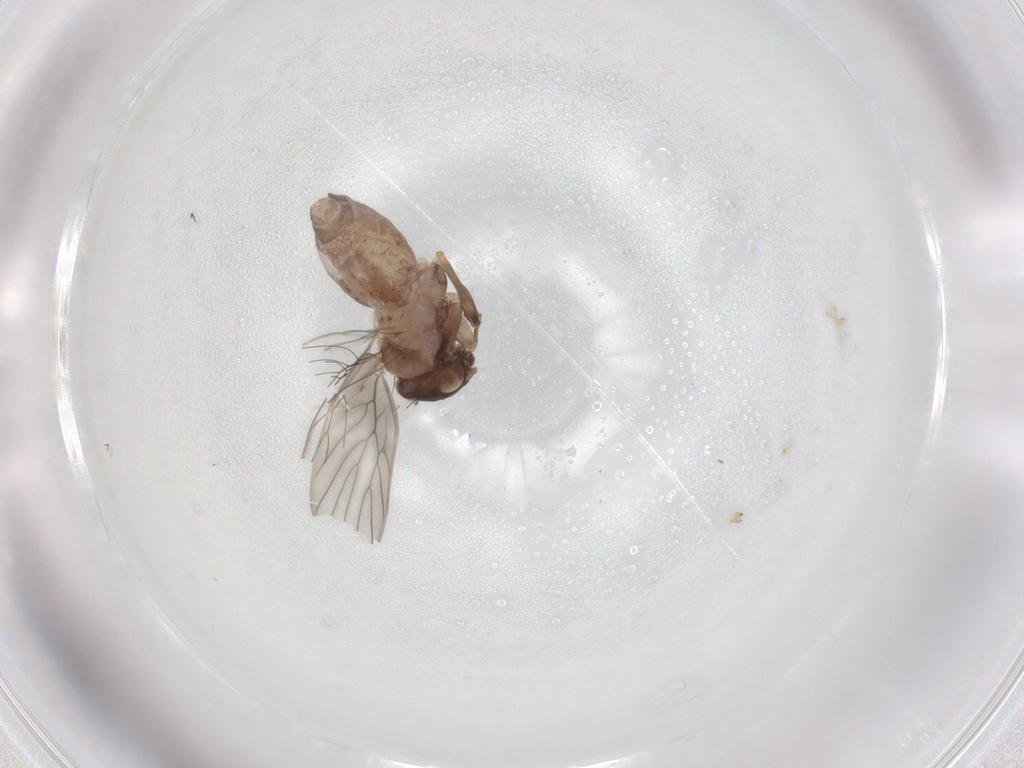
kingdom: Animalia
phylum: Arthropoda
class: Insecta
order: Psocodea
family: Lepidopsocidae
